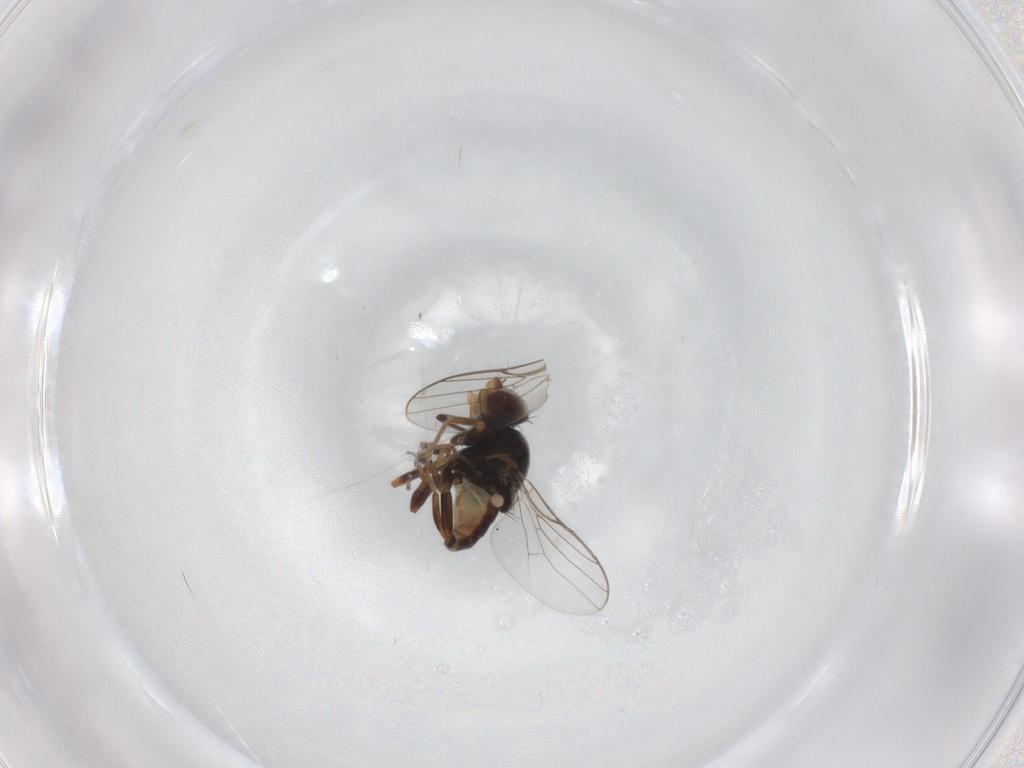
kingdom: Animalia
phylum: Arthropoda
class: Insecta
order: Diptera
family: Chloropidae
